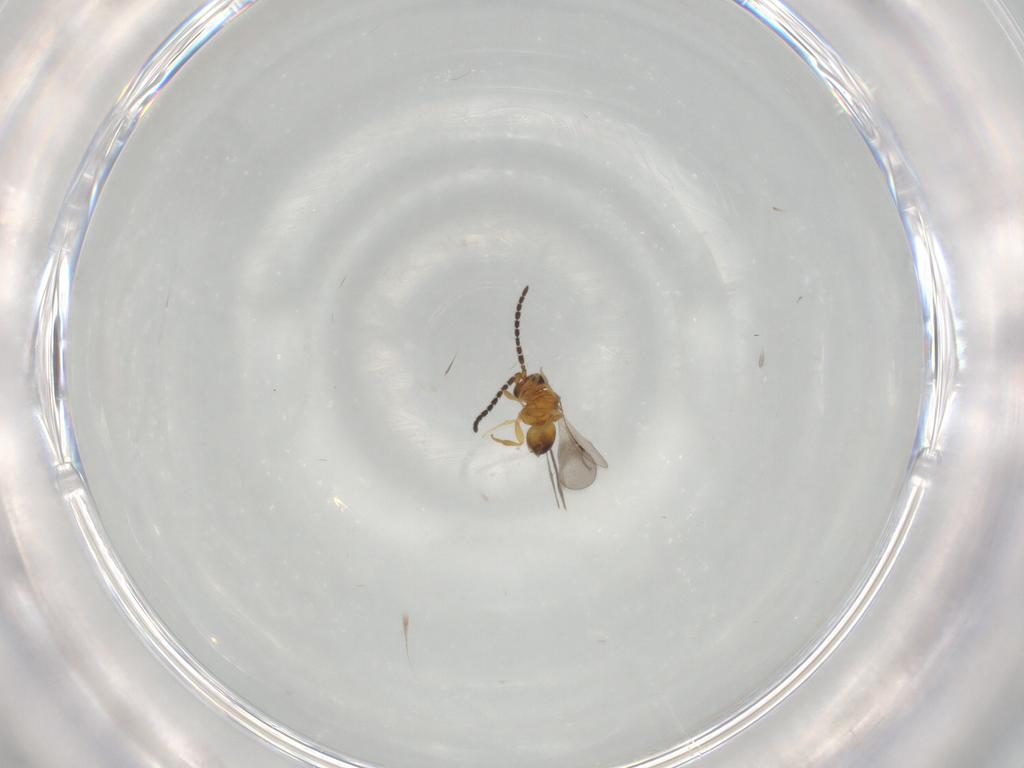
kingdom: Animalia
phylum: Arthropoda
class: Insecta
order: Hymenoptera
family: Ceraphronidae
